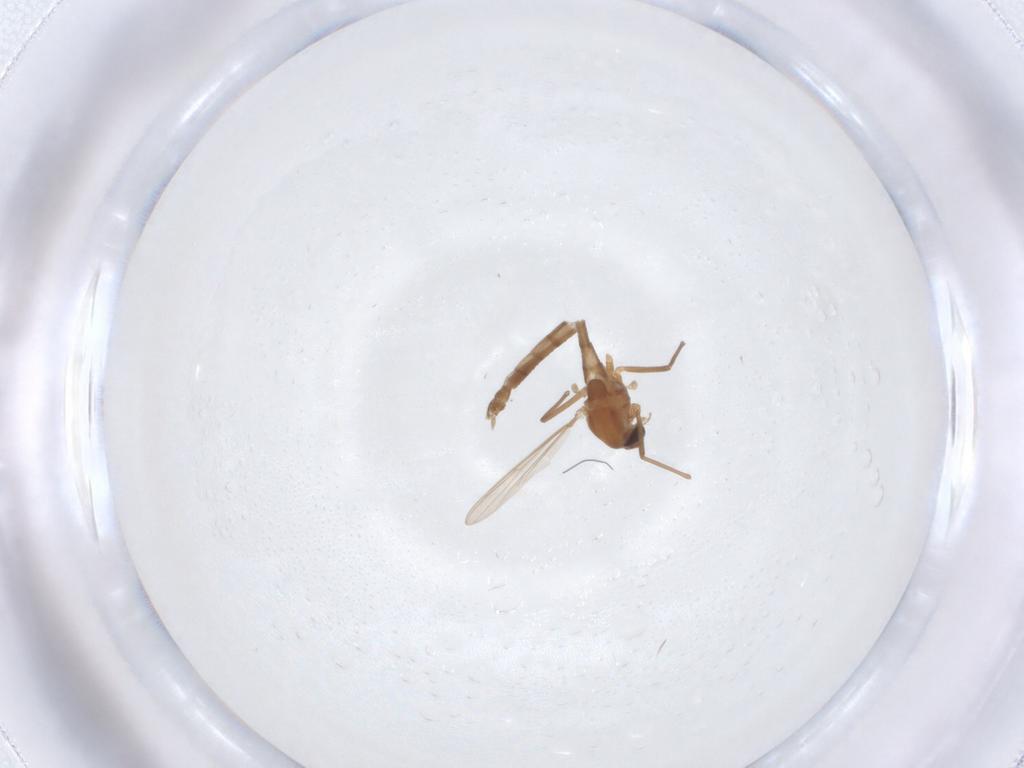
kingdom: Animalia
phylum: Arthropoda
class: Insecta
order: Diptera
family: Chironomidae
